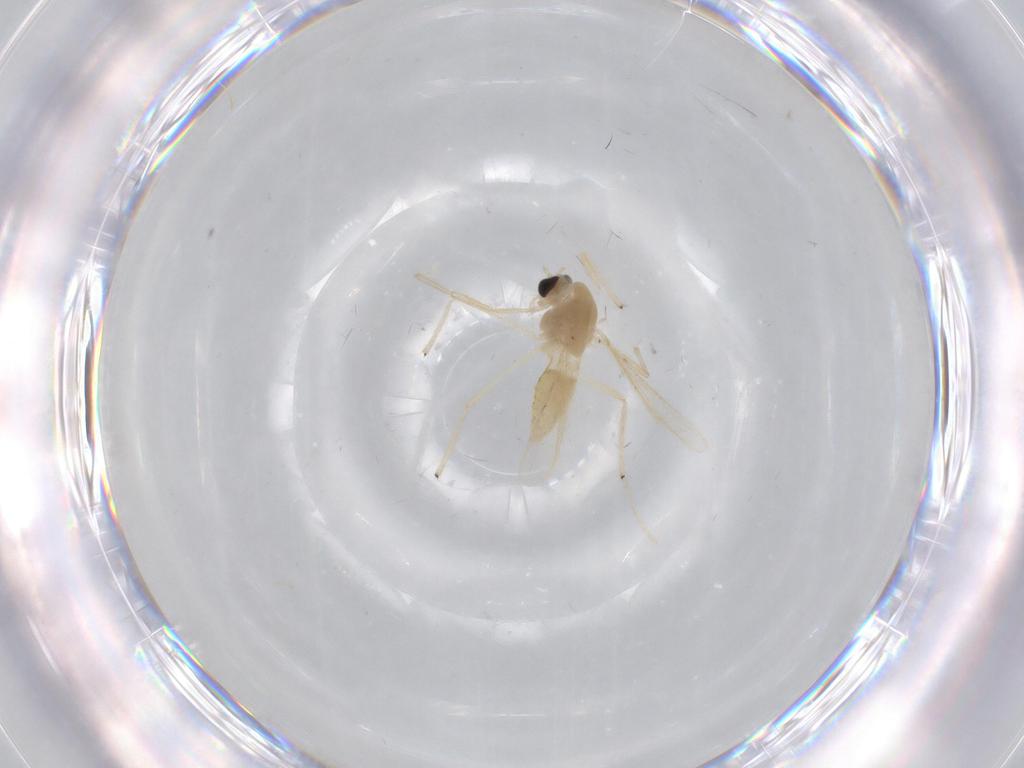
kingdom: Animalia
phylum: Arthropoda
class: Insecta
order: Diptera
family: Chironomidae
